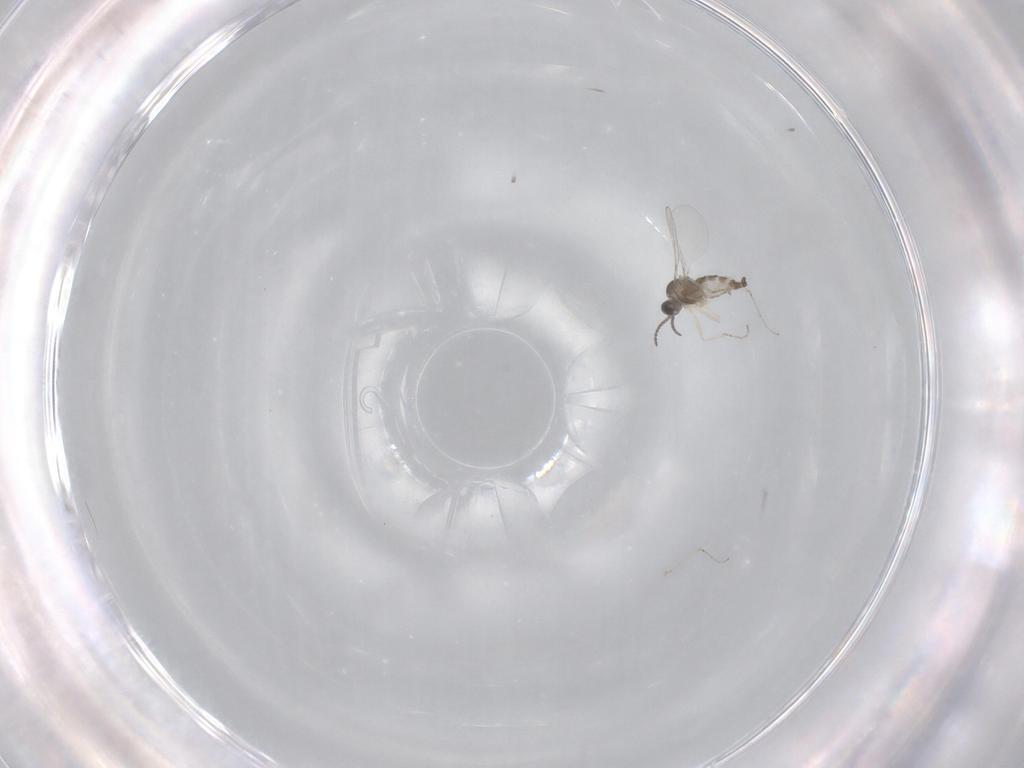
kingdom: Animalia
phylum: Arthropoda
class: Insecta
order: Diptera
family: Cecidomyiidae
